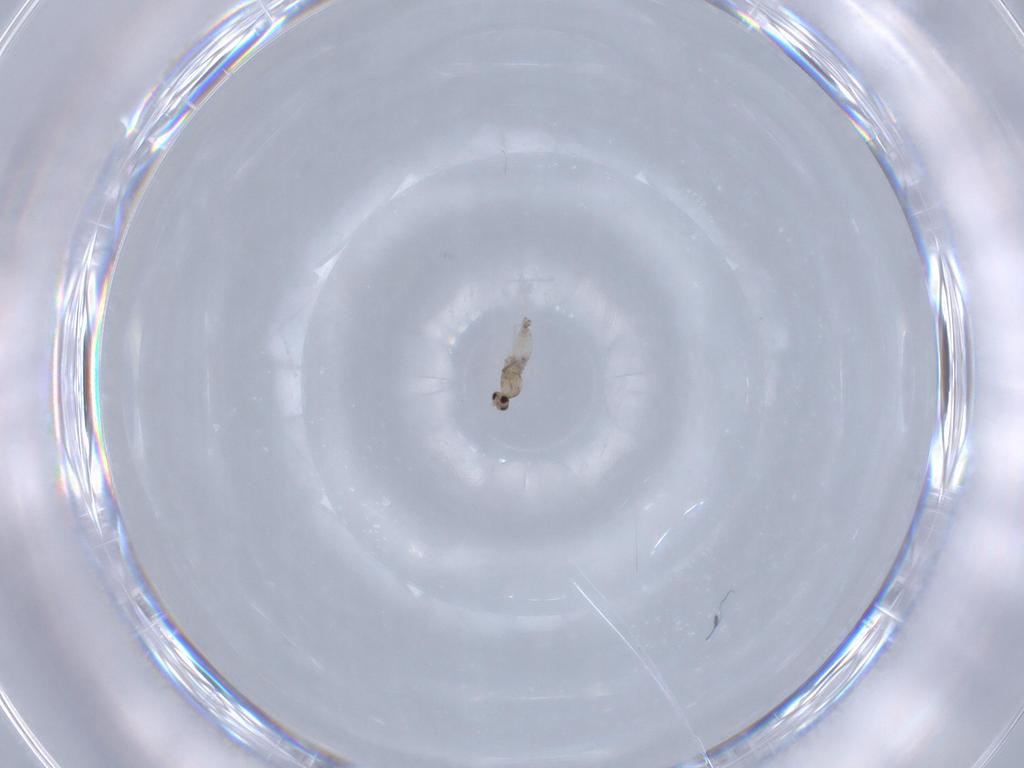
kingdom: Animalia
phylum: Arthropoda
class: Insecta
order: Diptera
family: Cecidomyiidae
